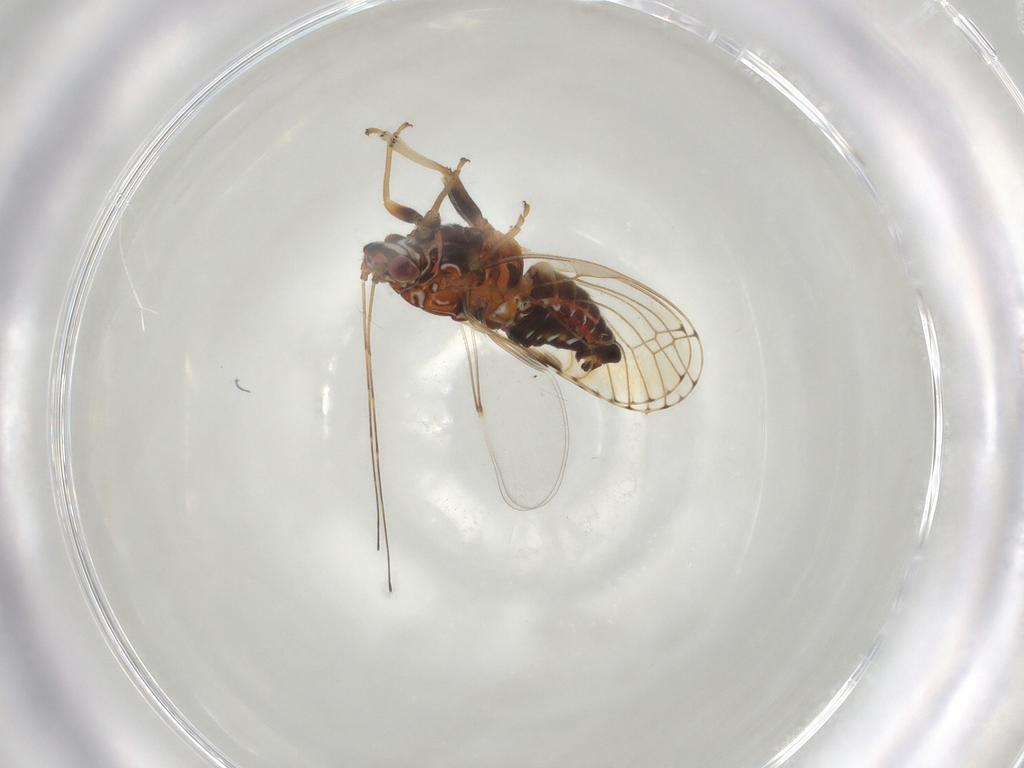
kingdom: Animalia
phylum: Arthropoda
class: Insecta
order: Hemiptera
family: Psylloidea_incertae_sedis
